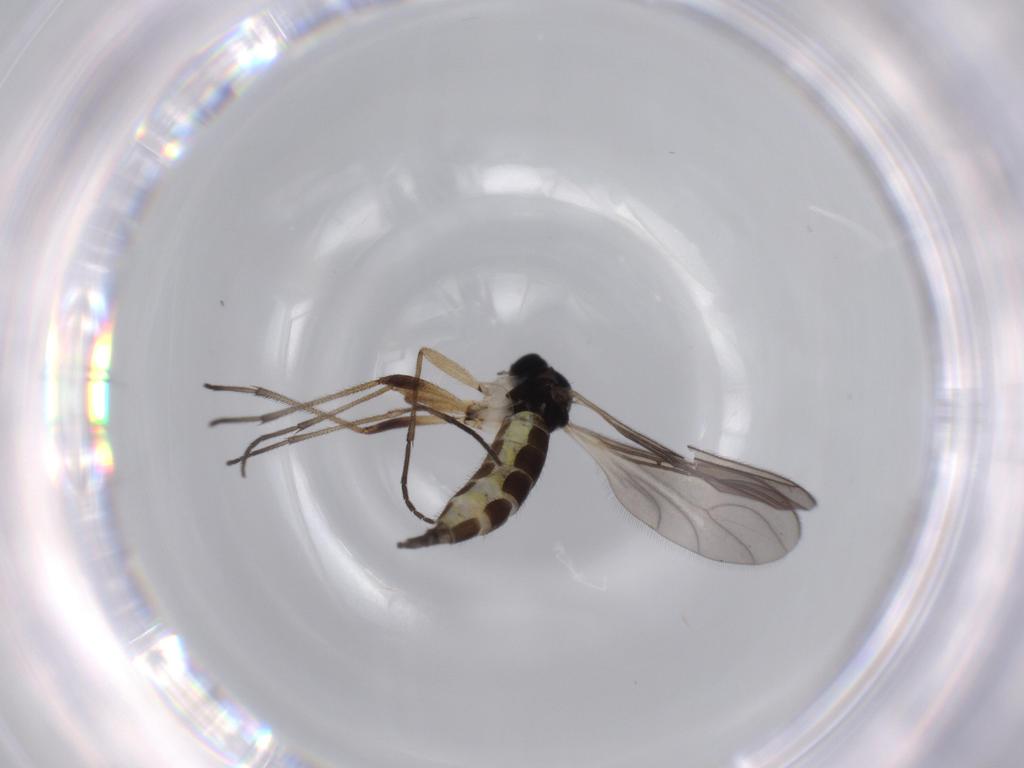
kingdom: Animalia
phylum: Arthropoda
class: Insecta
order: Diptera
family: Sciaridae
